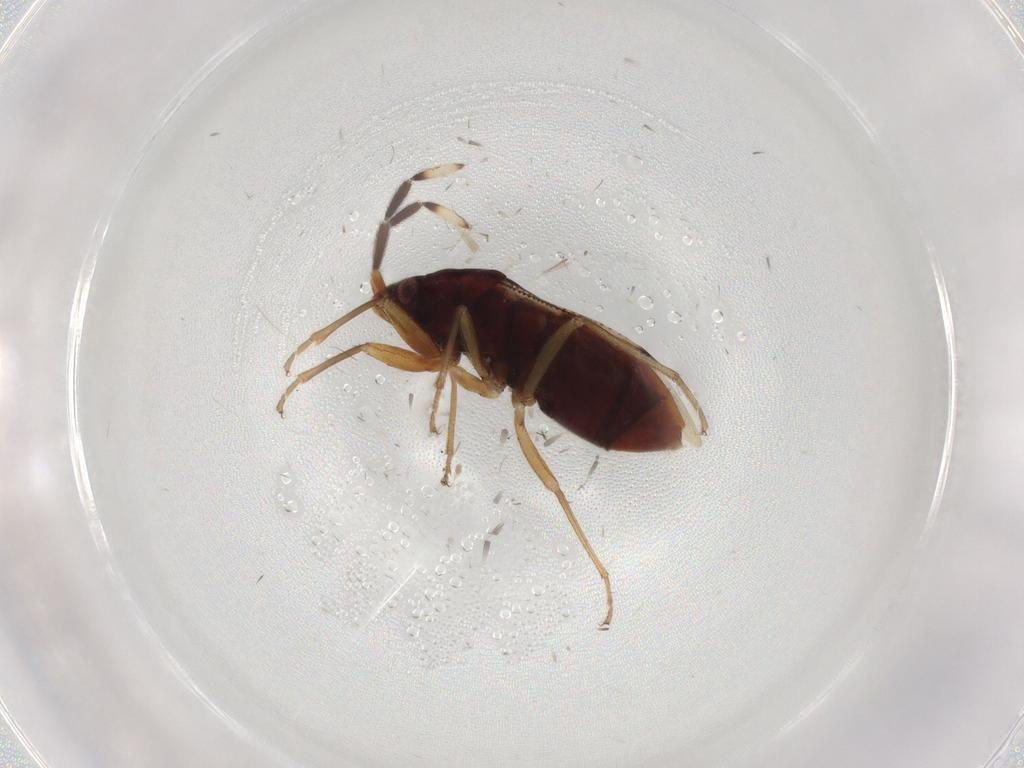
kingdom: Animalia
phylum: Arthropoda
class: Insecta
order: Hemiptera
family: Rhyparochromidae
